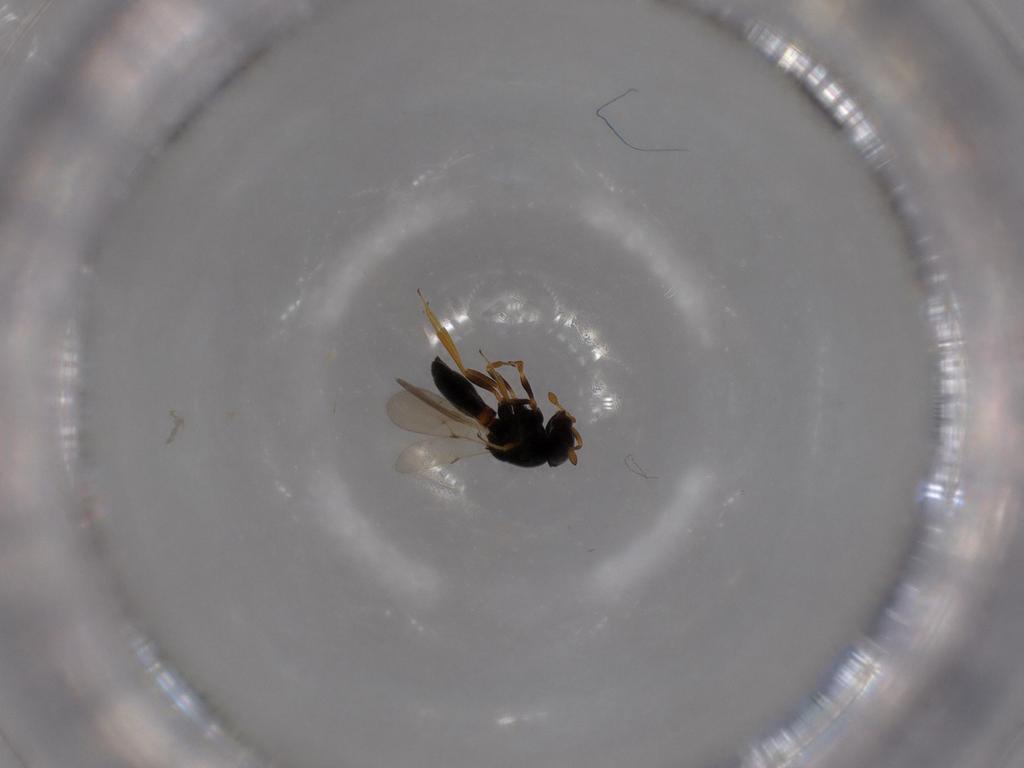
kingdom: Animalia
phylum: Arthropoda
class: Insecta
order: Hymenoptera
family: Scelionidae
